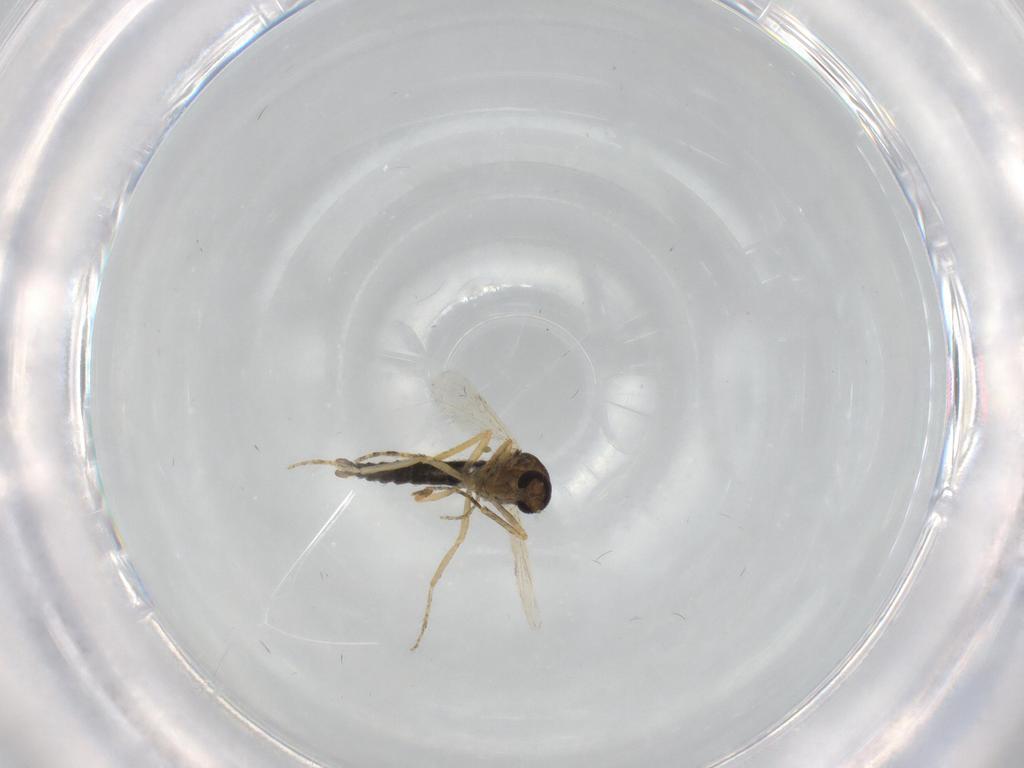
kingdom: Animalia
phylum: Arthropoda
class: Insecta
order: Diptera
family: Ceratopogonidae
